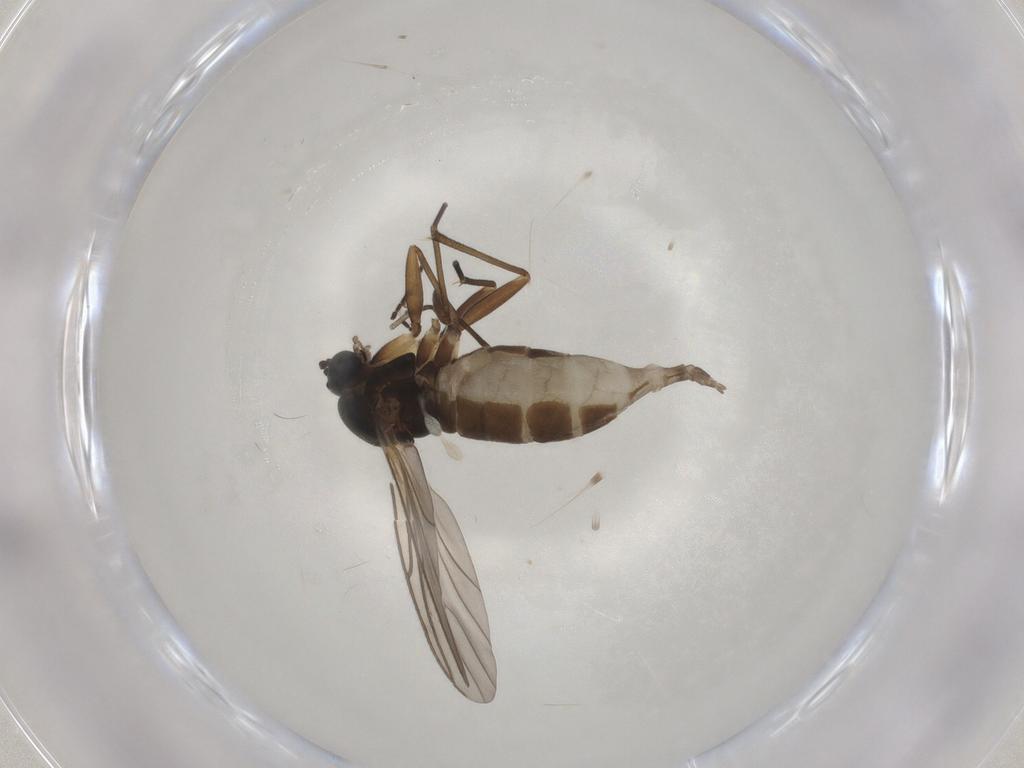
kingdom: Animalia
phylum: Arthropoda
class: Insecta
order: Diptera
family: Sciaridae
